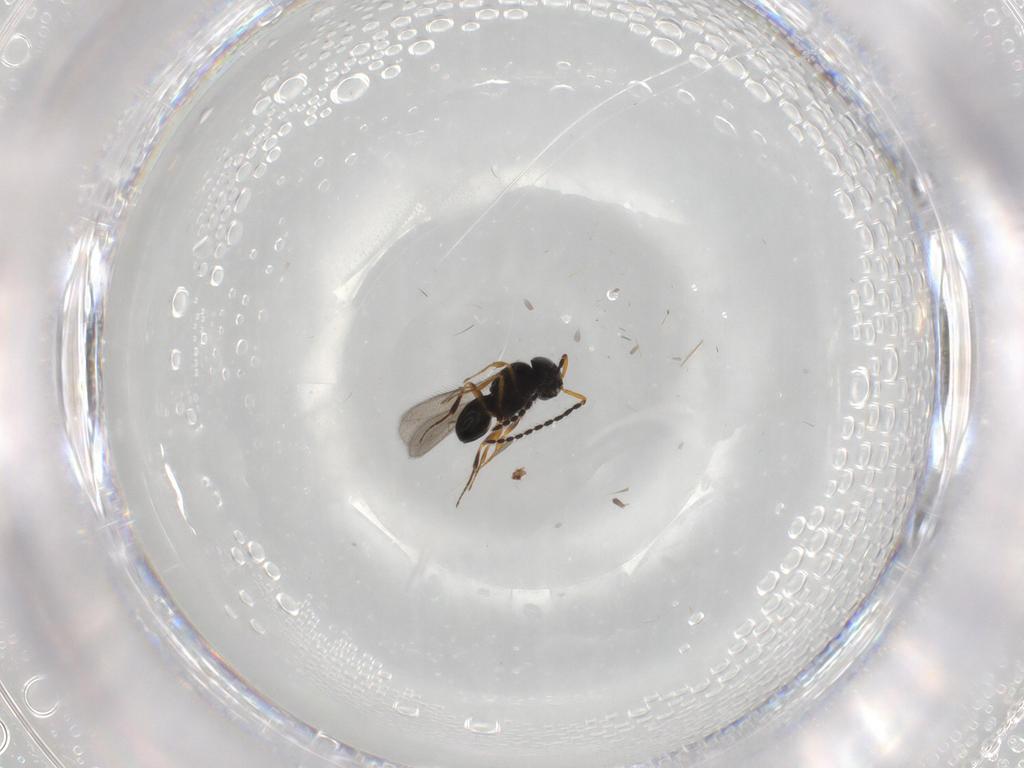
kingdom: Animalia
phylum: Arthropoda
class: Insecta
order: Hymenoptera
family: Scelionidae
